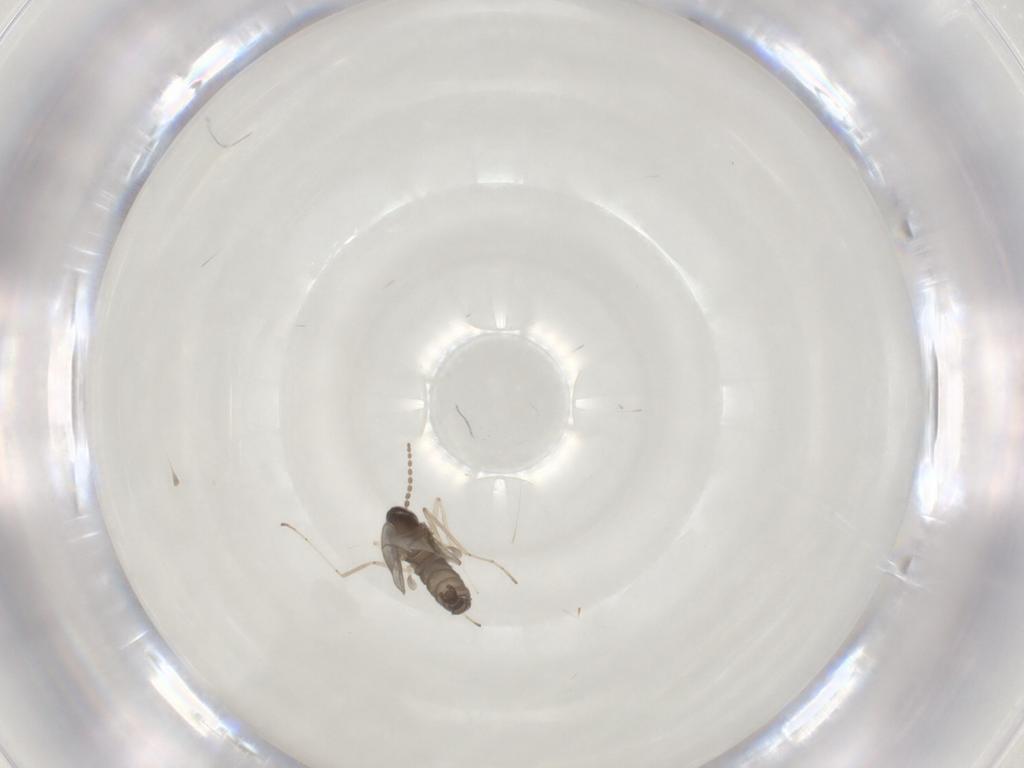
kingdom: Animalia
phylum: Arthropoda
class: Insecta
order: Diptera
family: Cecidomyiidae
